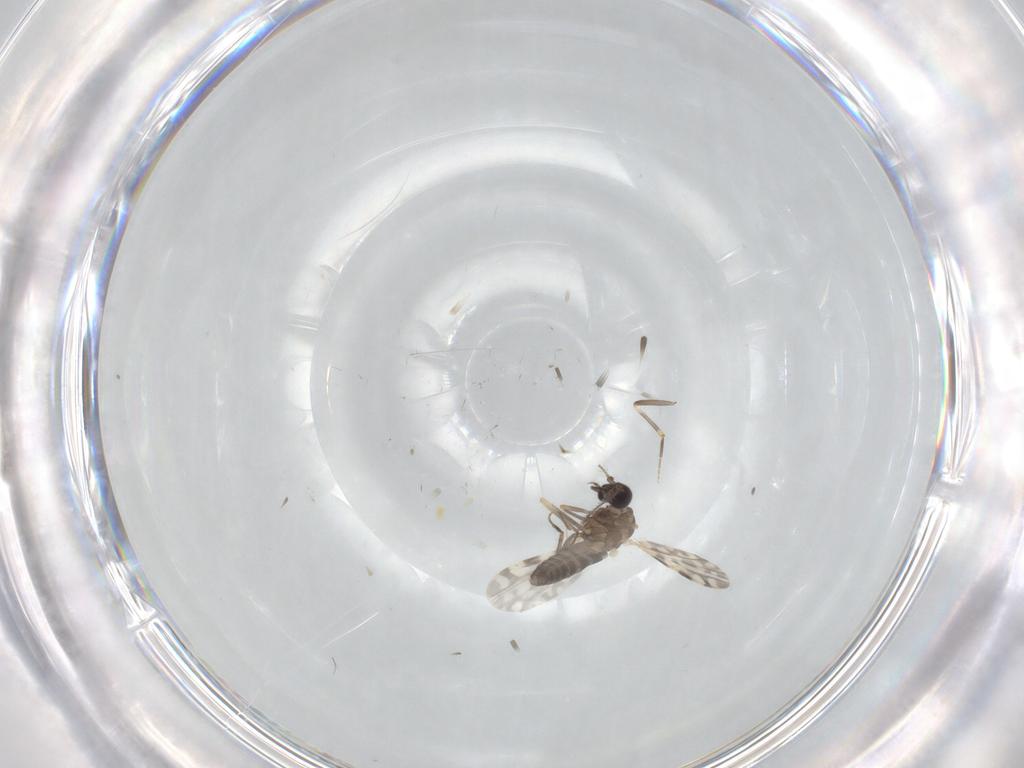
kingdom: Animalia
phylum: Arthropoda
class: Insecta
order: Diptera
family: Ceratopogonidae
